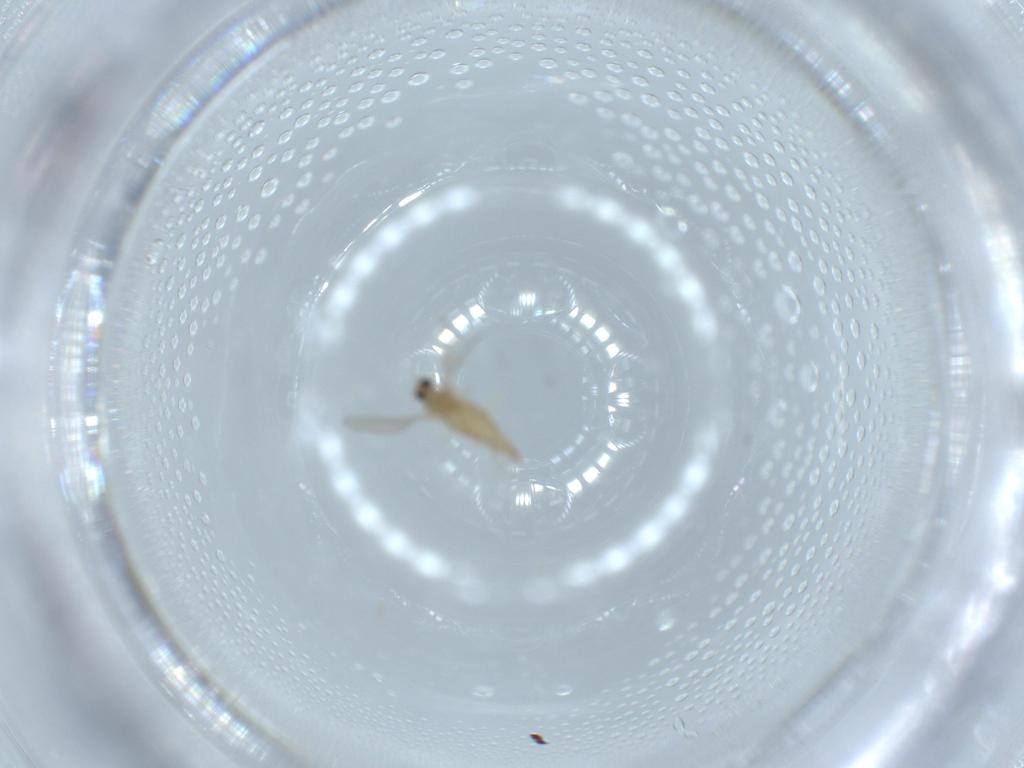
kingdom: Animalia
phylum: Arthropoda
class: Insecta
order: Diptera
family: Cecidomyiidae
